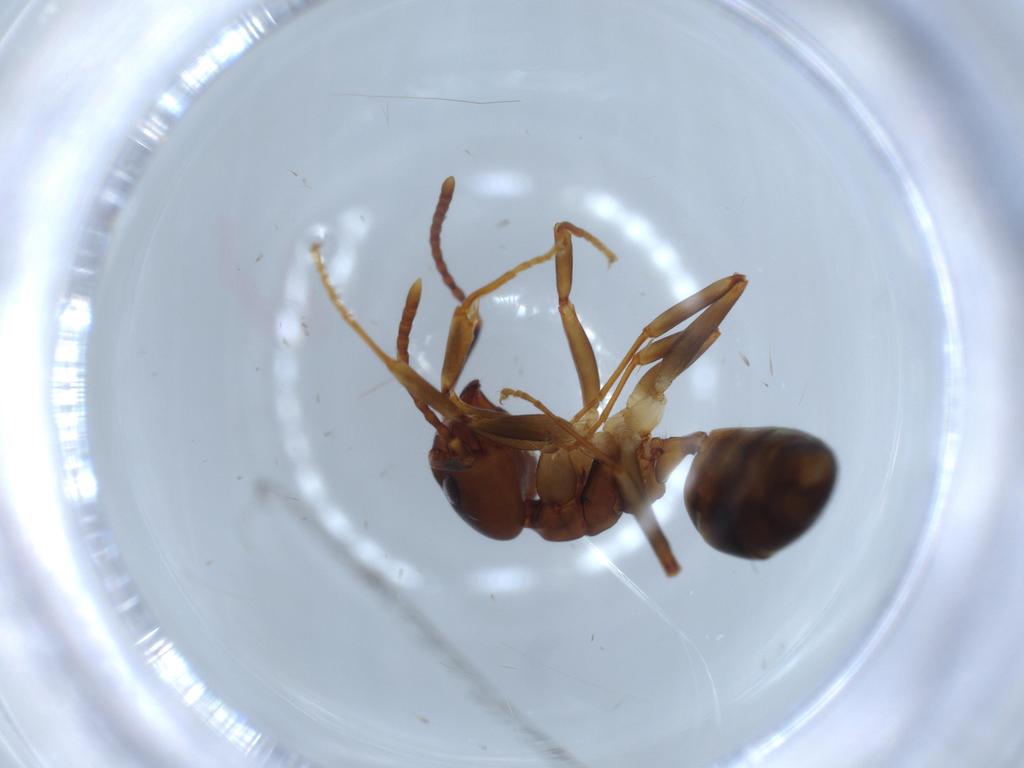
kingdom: Animalia
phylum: Arthropoda
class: Insecta
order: Hymenoptera
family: Formicidae
